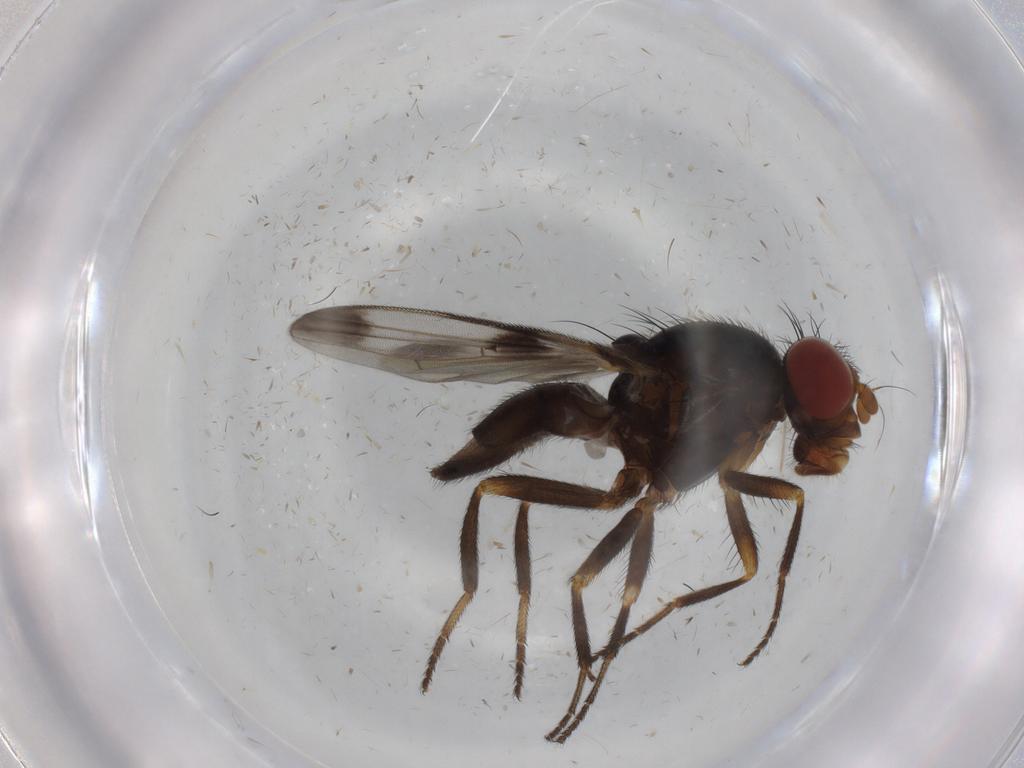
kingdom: Animalia
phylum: Arthropoda
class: Insecta
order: Diptera
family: Ulidiidae
